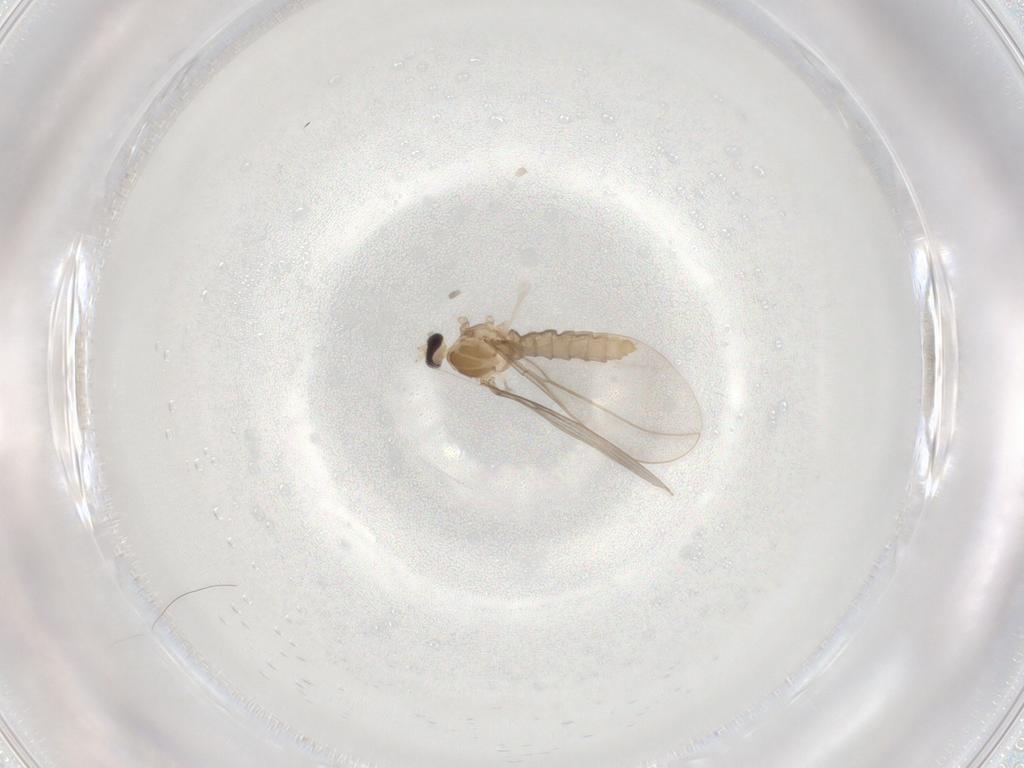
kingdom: Animalia
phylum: Arthropoda
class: Insecta
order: Diptera
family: Cecidomyiidae
